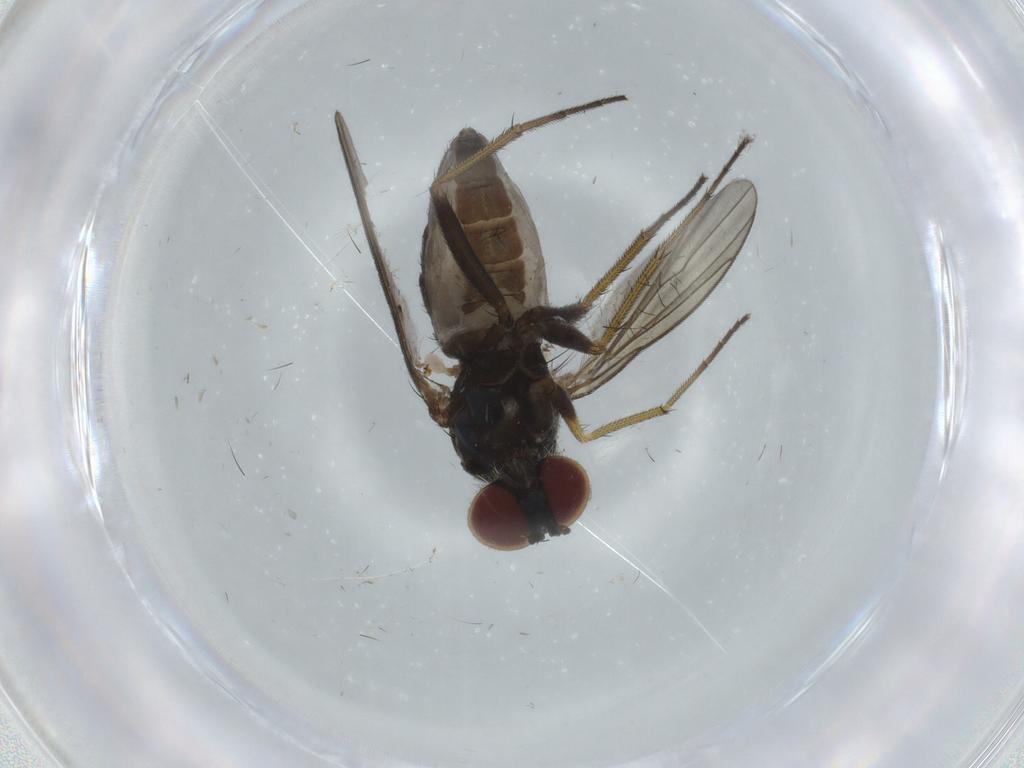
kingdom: Animalia
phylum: Arthropoda
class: Insecta
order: Diptera
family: Dolichopodidae
